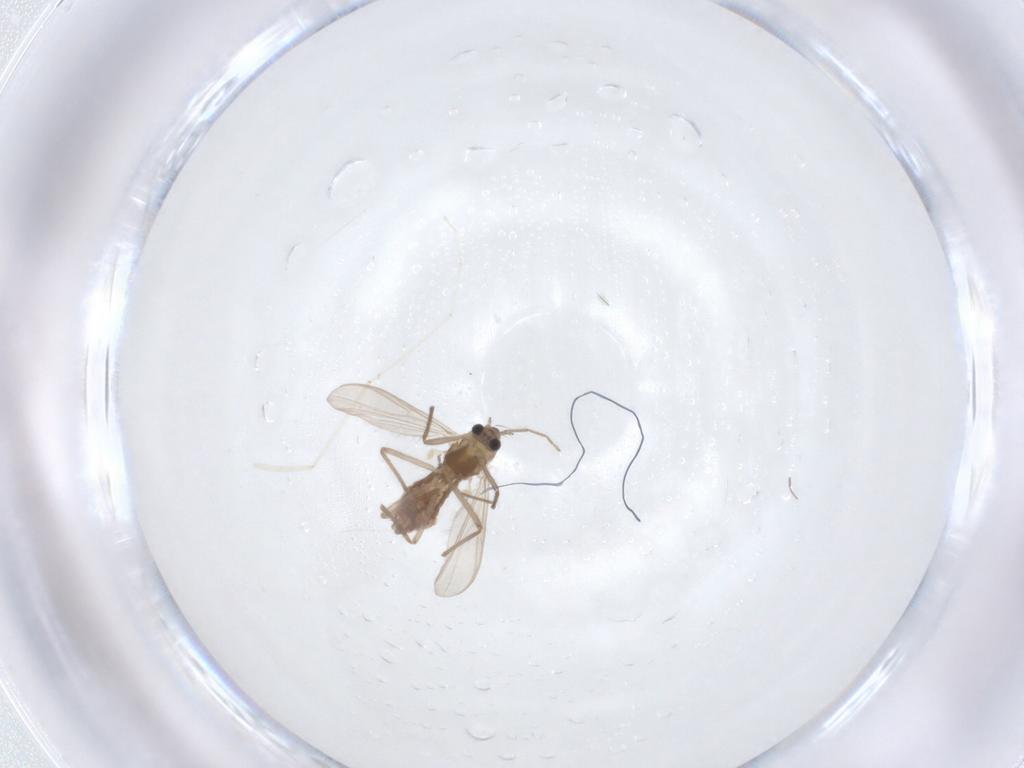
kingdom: Animalia
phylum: Arthropoda
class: Insecta
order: Diptera
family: Chironomidae
